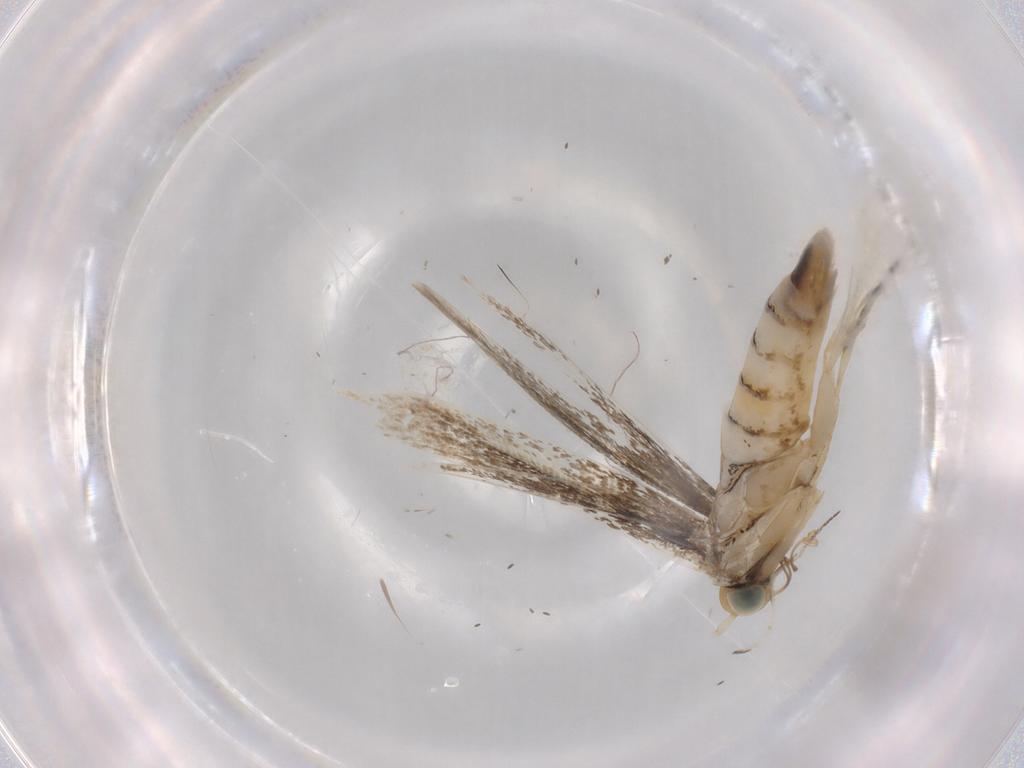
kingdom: Animalia
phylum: Arthropoda
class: Insecta
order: Lepidoptera
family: Gracillariidae
